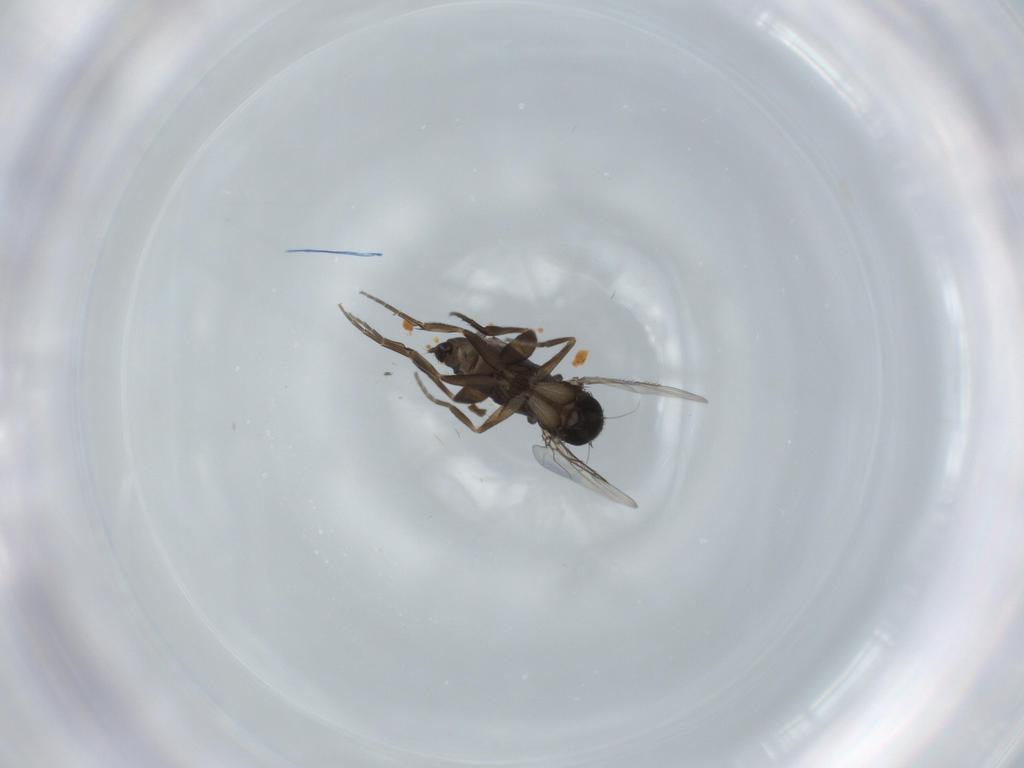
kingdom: Animalia
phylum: Arthropoda
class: Insecta
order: Diptera
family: Phoridae
